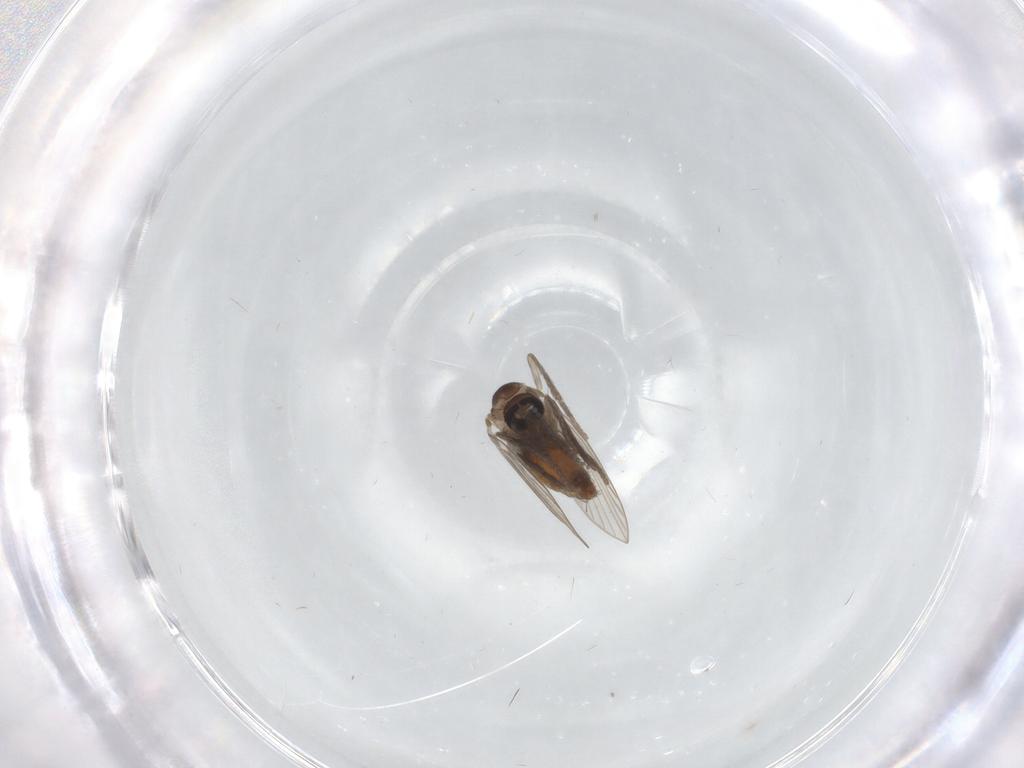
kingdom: Animalia
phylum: Arthropoda
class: Insecta
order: Diptera
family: Psychodidae
